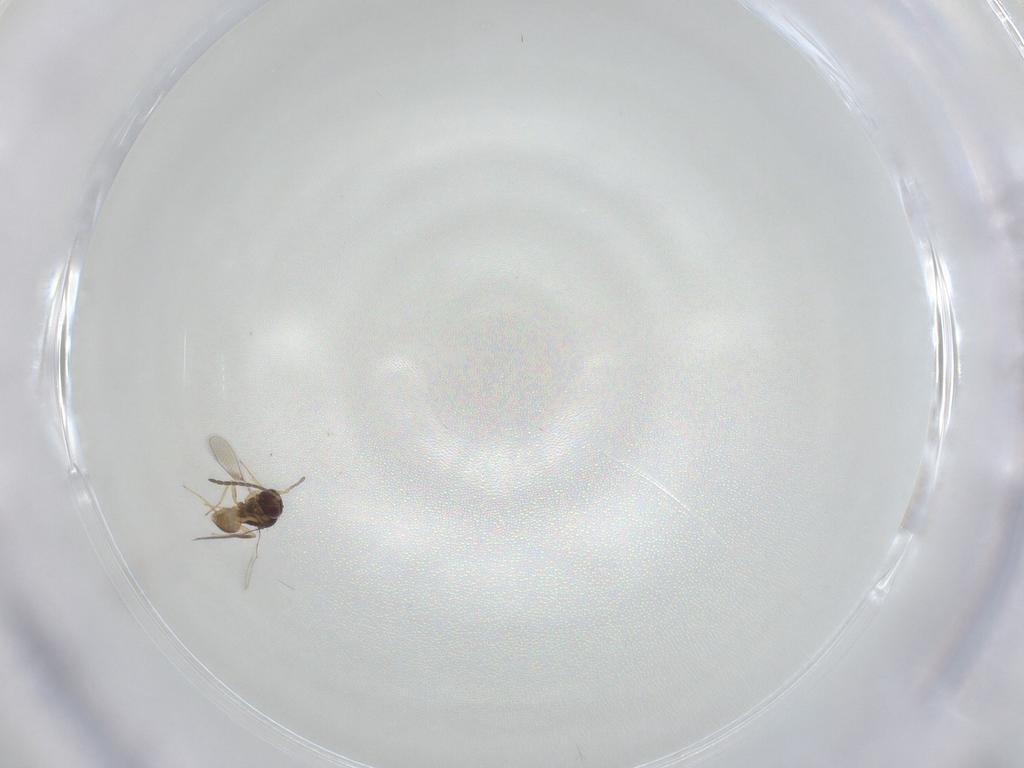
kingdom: Animalia
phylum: Arthropoda
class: Insecta
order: Hymenoptera
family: Mymaridae
